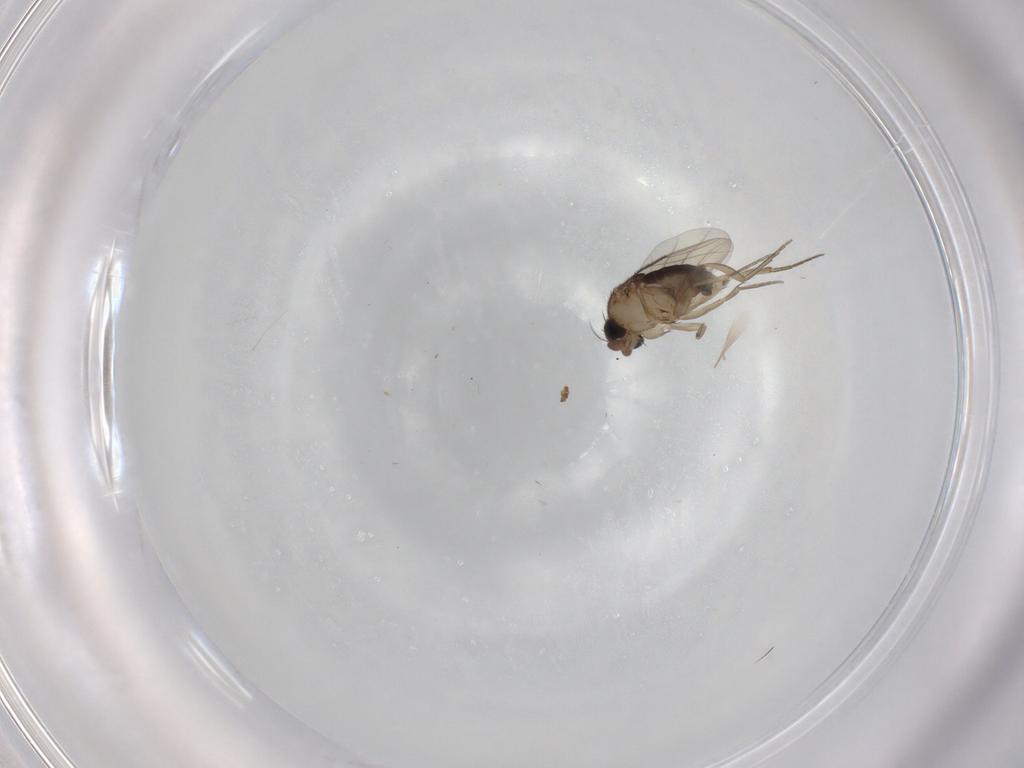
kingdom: Animalia
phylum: Arthropoda
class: Insecta
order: Diptera
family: Phoridae
